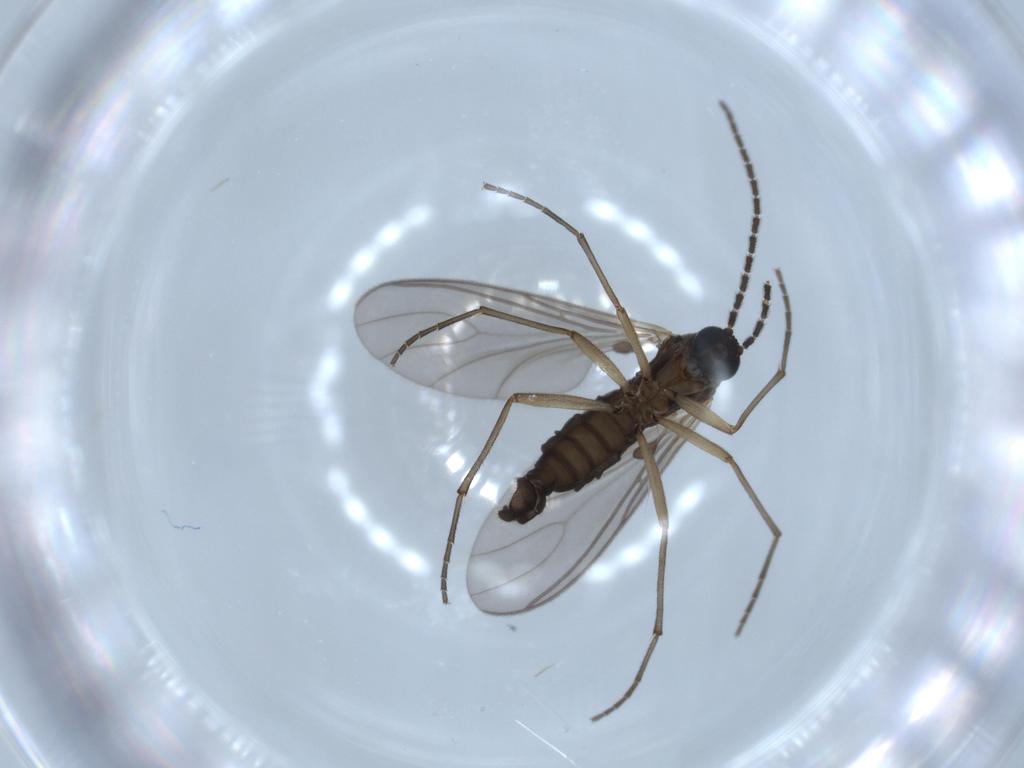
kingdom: Animalia
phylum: Arthropoda
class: Insecta
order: Diptera
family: Sciaridae
